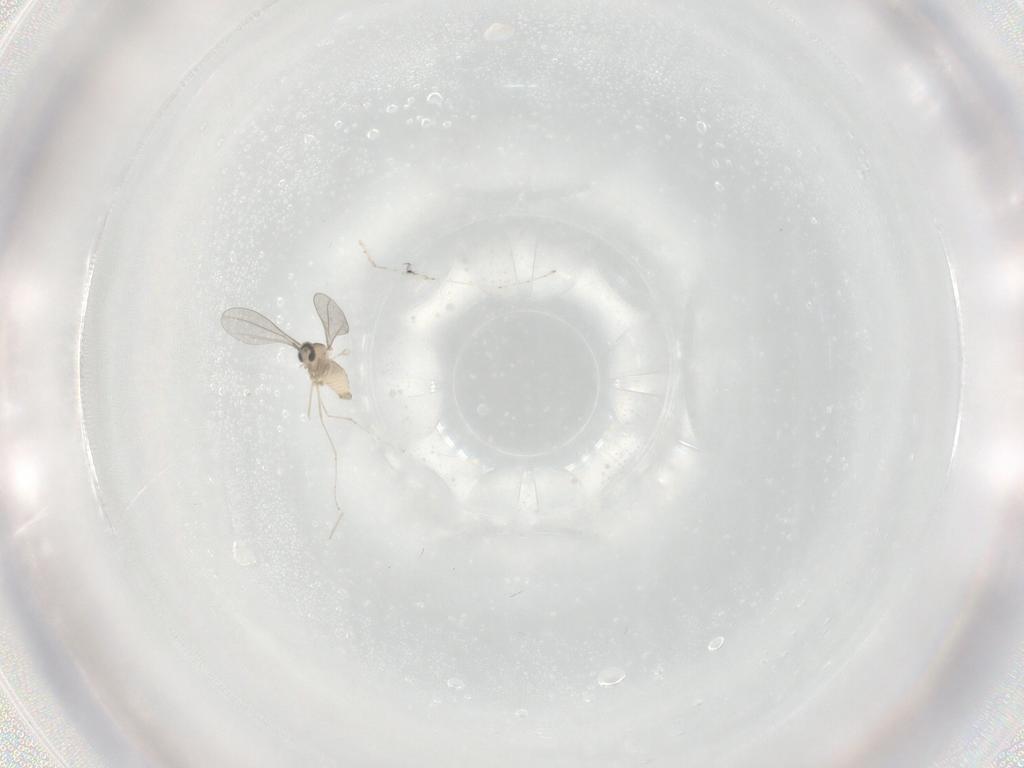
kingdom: Animalia
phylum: Arthropoda
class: Insecta
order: Diptera
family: Cecidomyiidae
